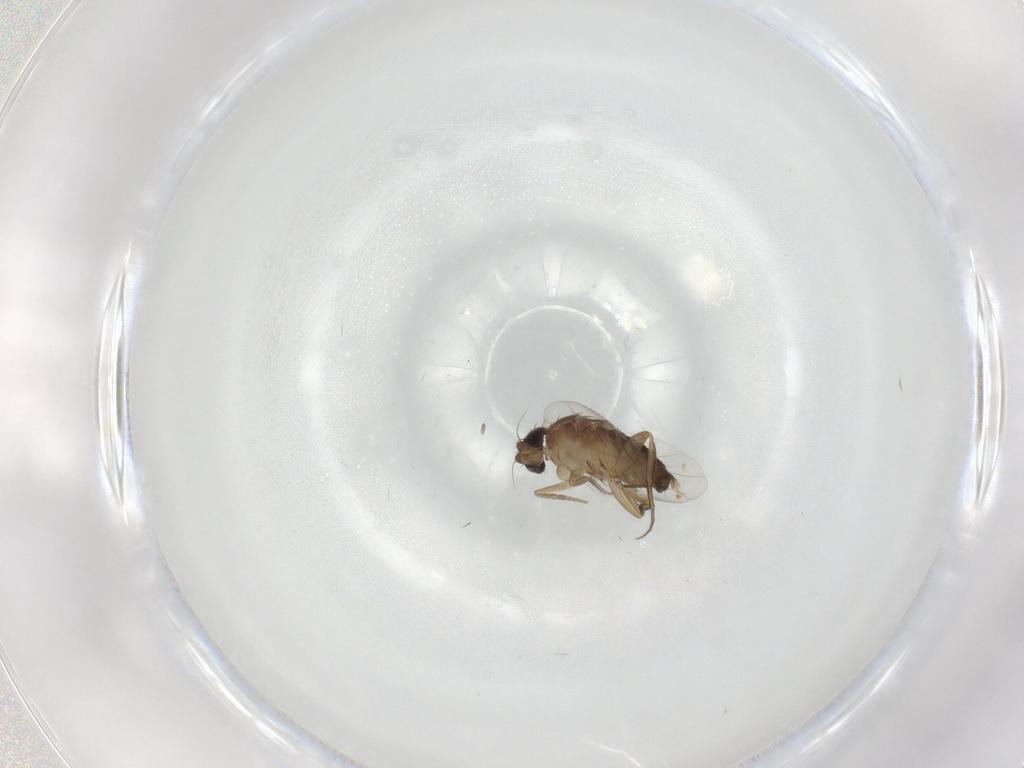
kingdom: Animalia
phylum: Arthropoda
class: Insecta
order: Diptera
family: Phoridae
